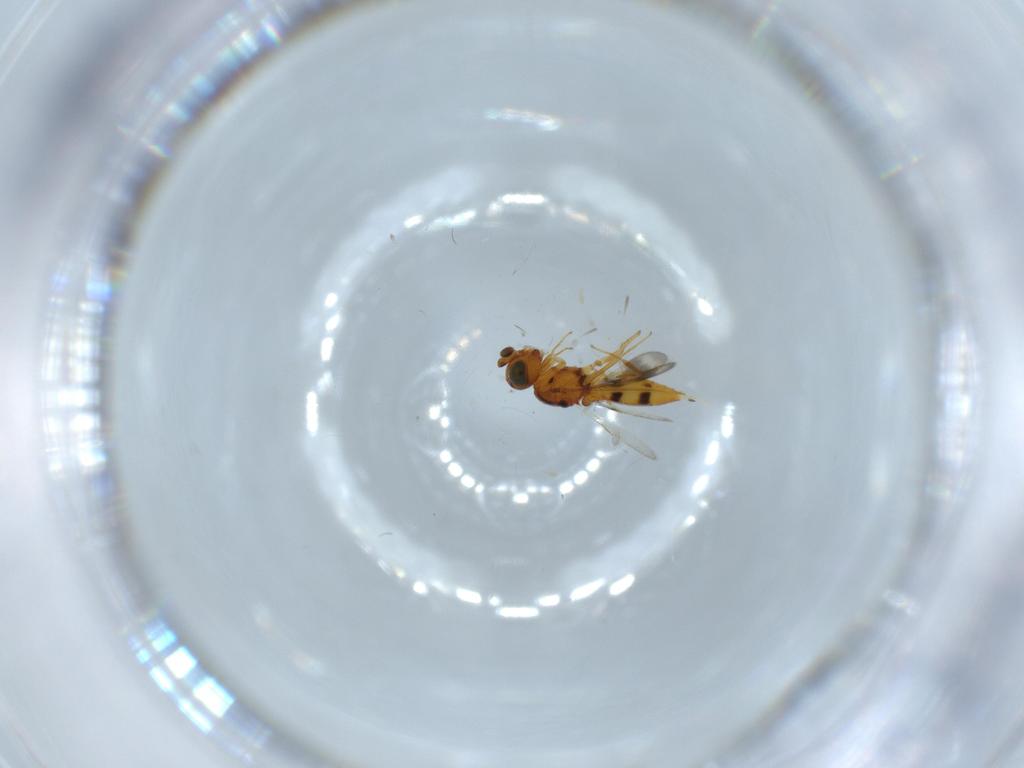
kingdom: Animalia
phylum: Arthropoda
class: Insecta
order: Hymenoptera
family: Scelionidae
